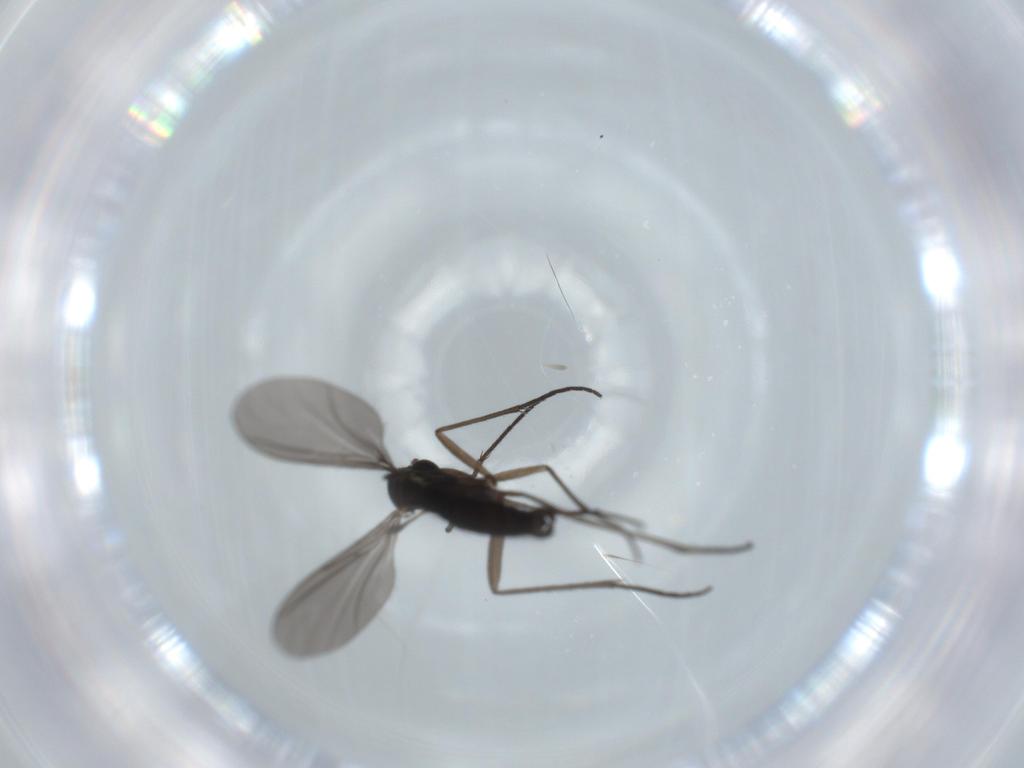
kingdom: Animalia
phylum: Arthropoda
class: Insecta
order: Diptera
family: Sciaridae
